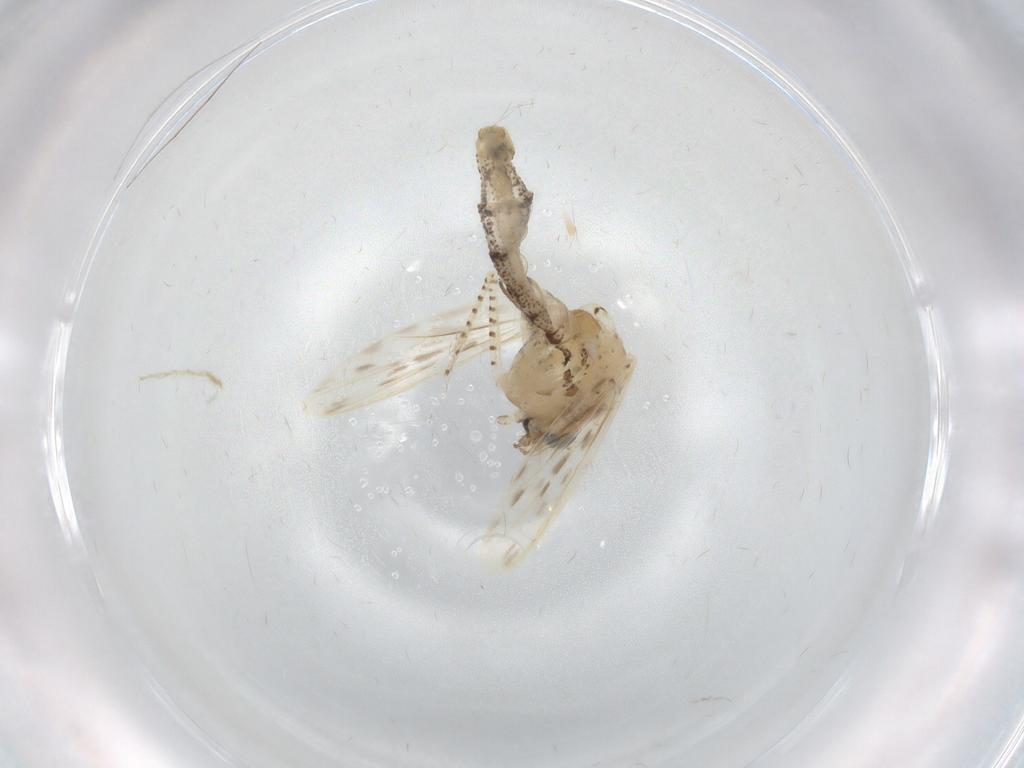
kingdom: Animalia
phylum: Arthropoda
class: Insecta
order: Diptera
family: Chaoboridae
